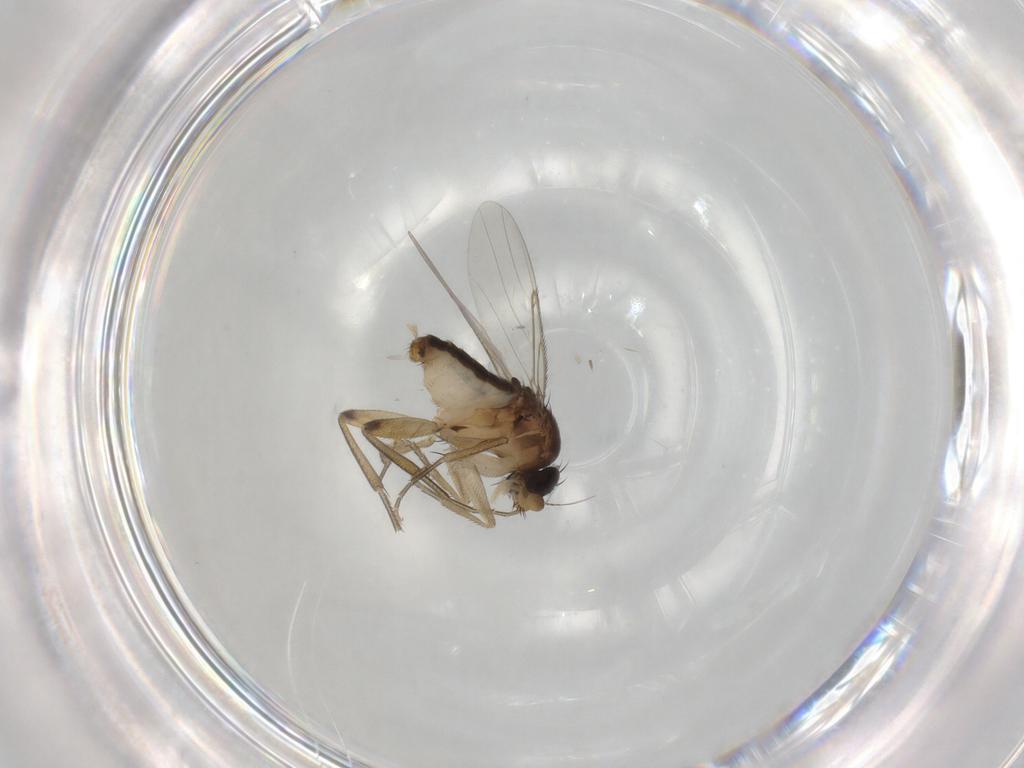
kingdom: Animalia
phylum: Arthropoda
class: Insecta
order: Diptera
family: Phoridae
